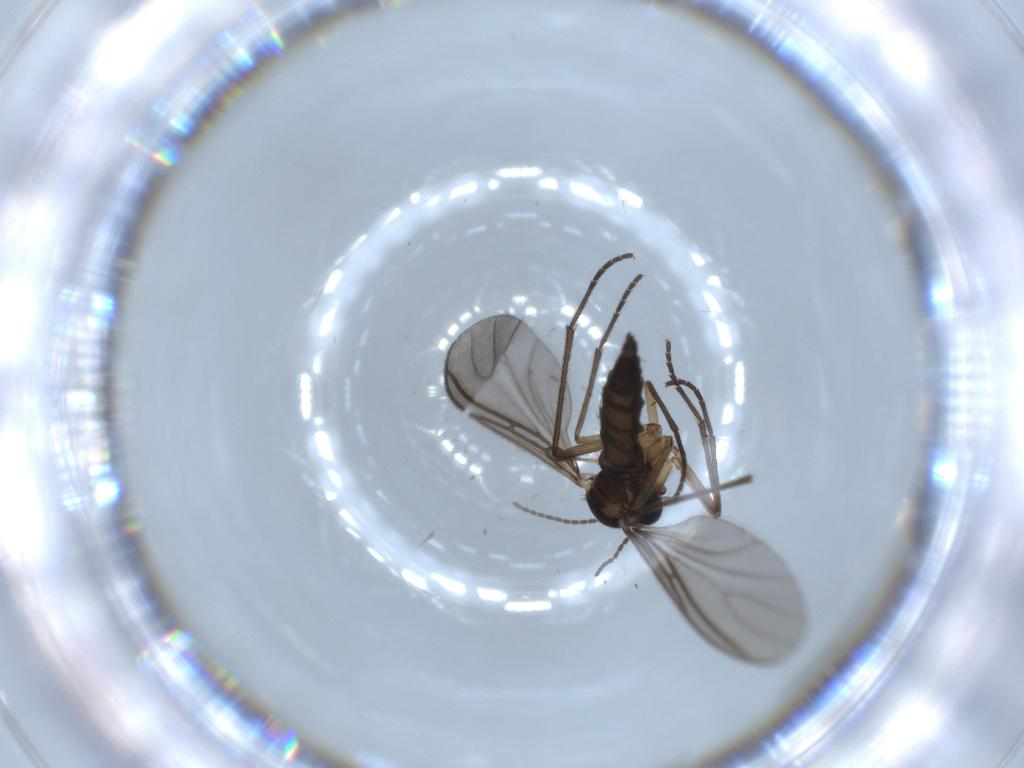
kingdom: Animalia
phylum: Arthropoda
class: Insecta
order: Diptera
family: Sciaridae
